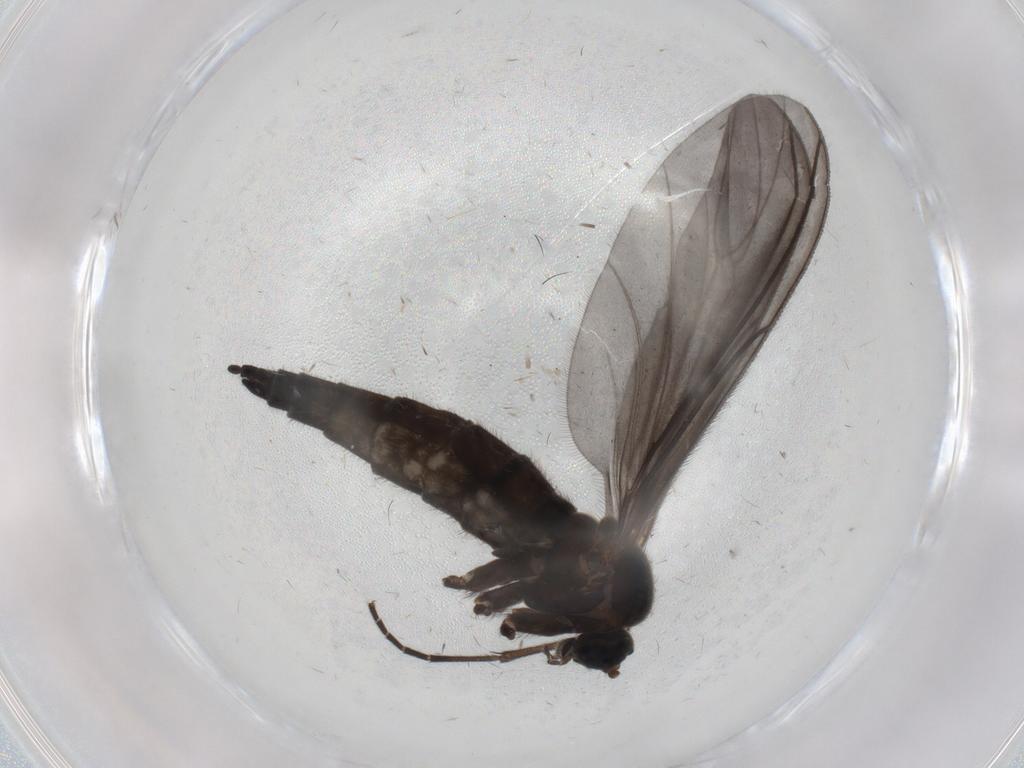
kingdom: Animalia
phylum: Arthropoda
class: Insecta
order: Diptera
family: Sciaridae
